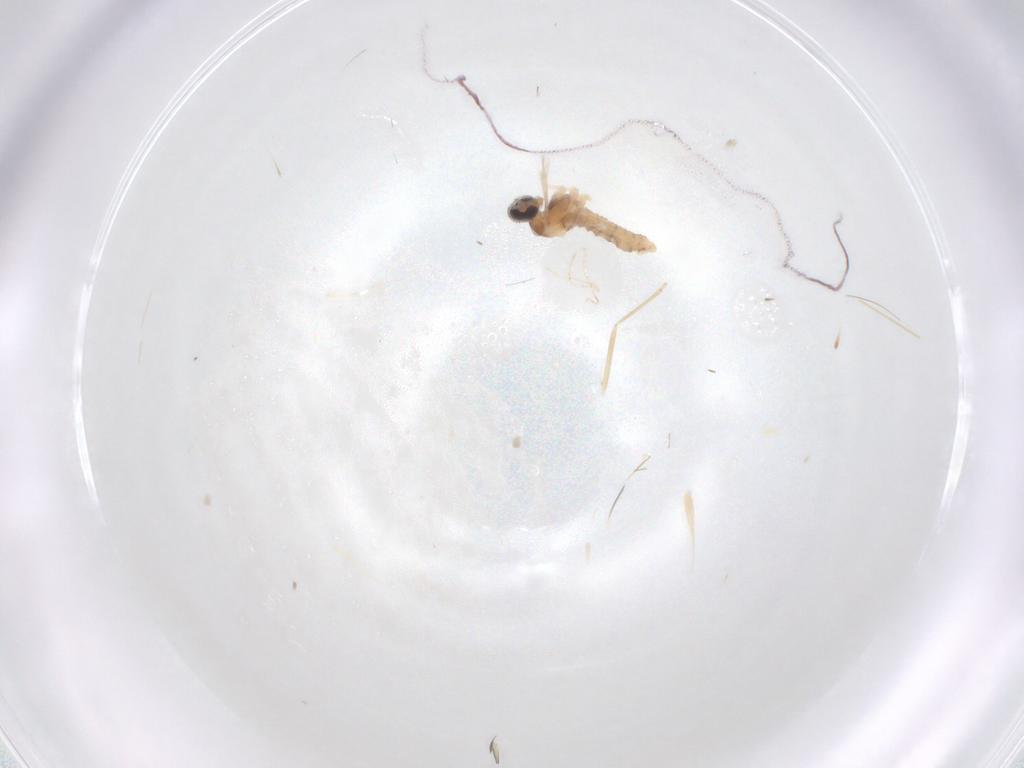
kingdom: Animalia
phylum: Arthropoda
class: Insecta
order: Diptera
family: Cecidomyiidae
